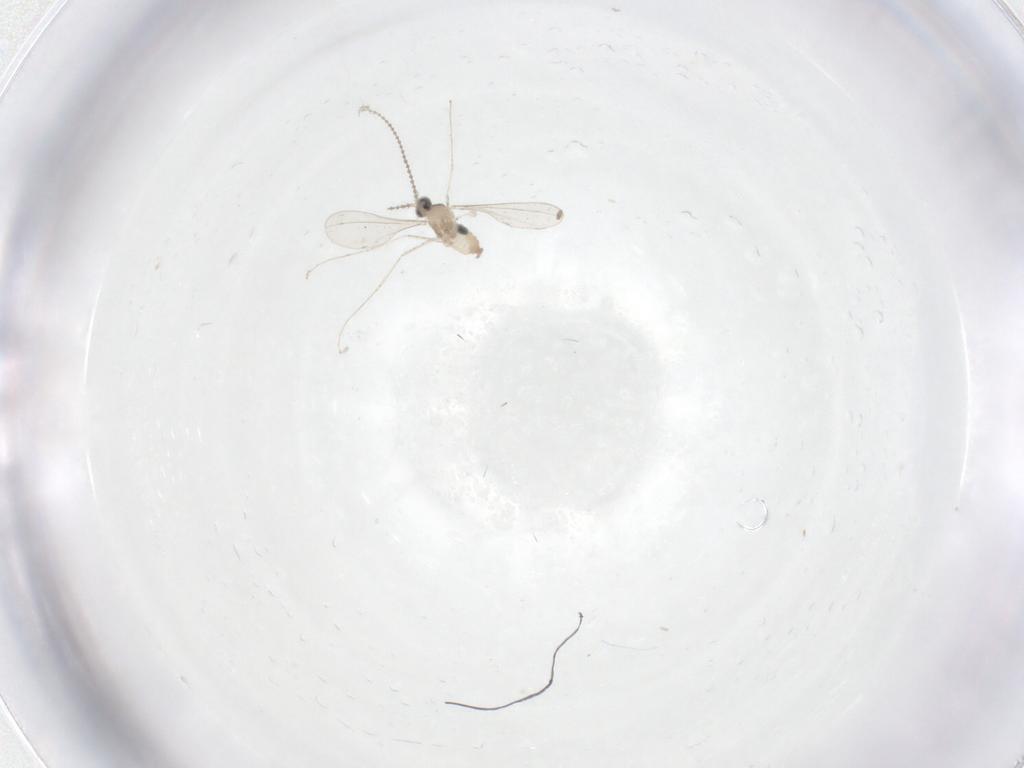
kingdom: Animalia
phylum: Arthropoda
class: Insecta
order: Diptera
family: Cecidomyiidae
